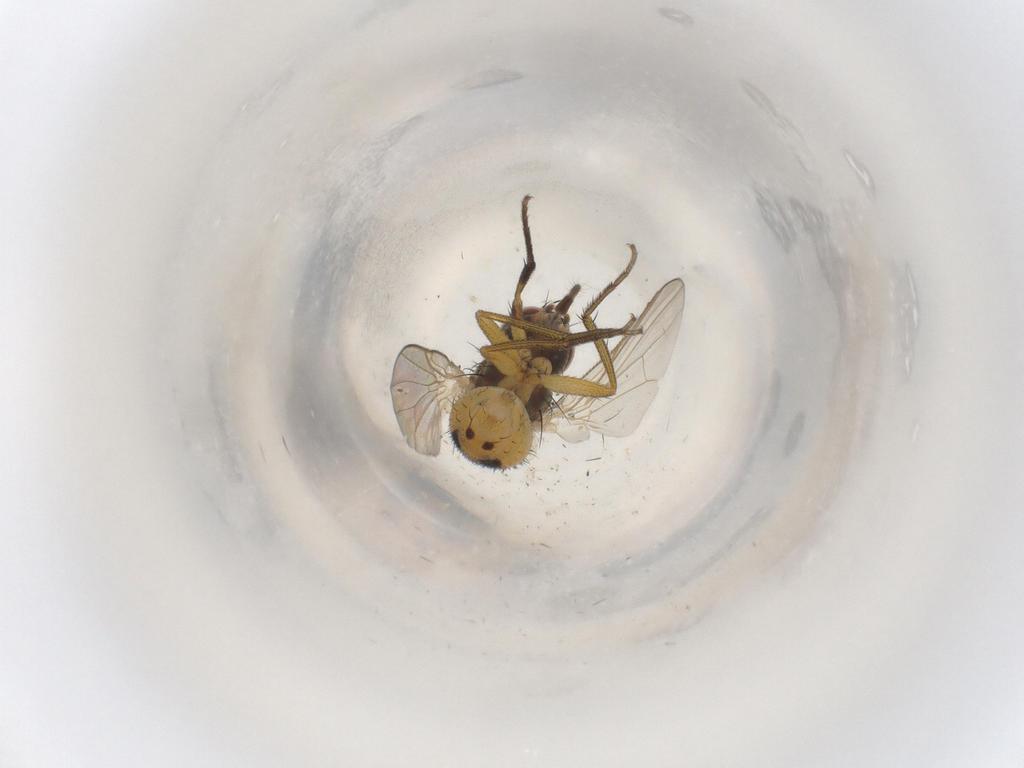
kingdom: Animalia
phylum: Arthropoda
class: Insecta
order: Diptera
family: Muscidae
